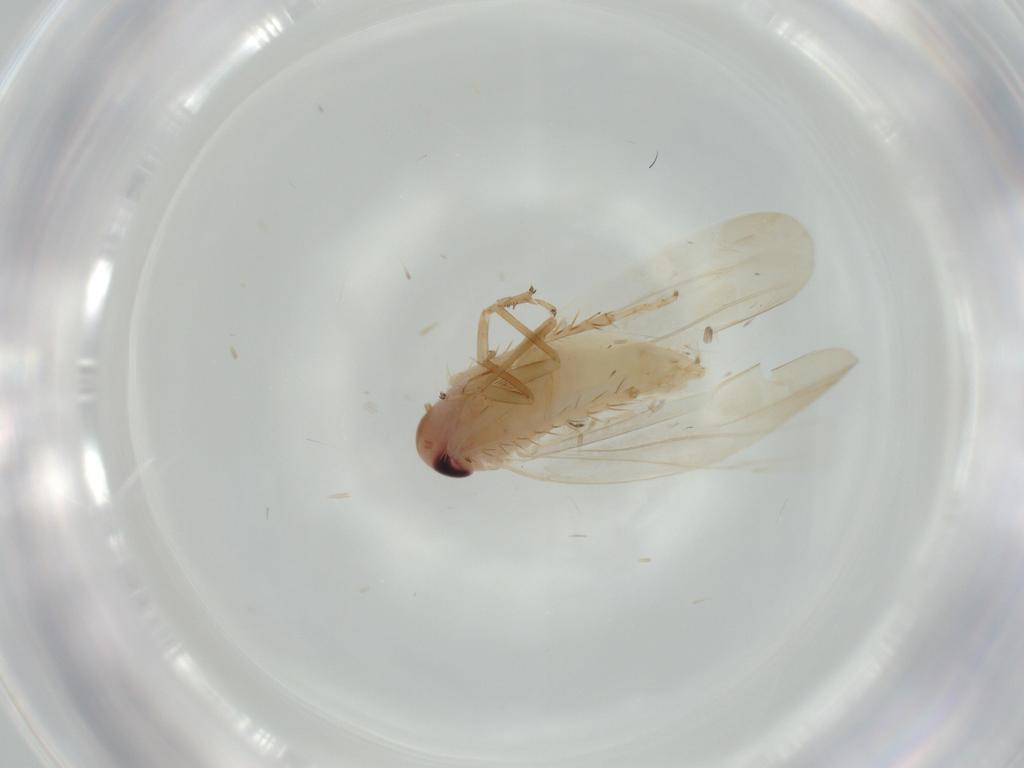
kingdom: Animalia
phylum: Arthropoda
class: Insecta
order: Hemiptera
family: Cicadellidae
